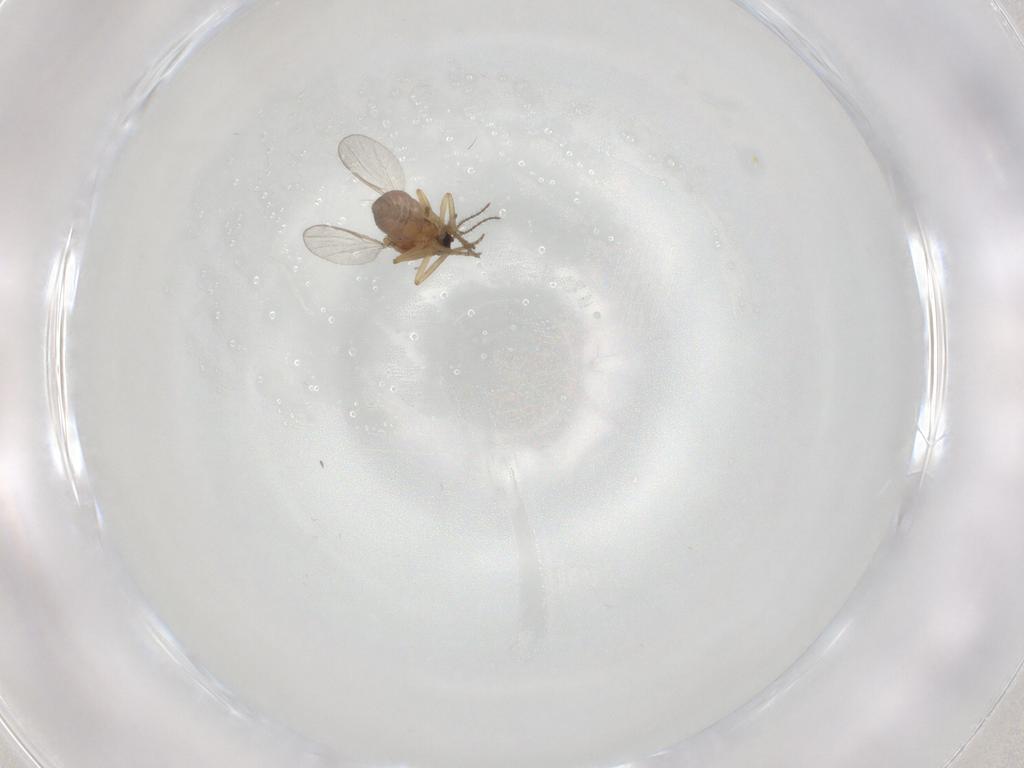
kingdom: Animalia
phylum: Arthropoda
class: Insecta
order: Diptera
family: Ceratopogonidae
